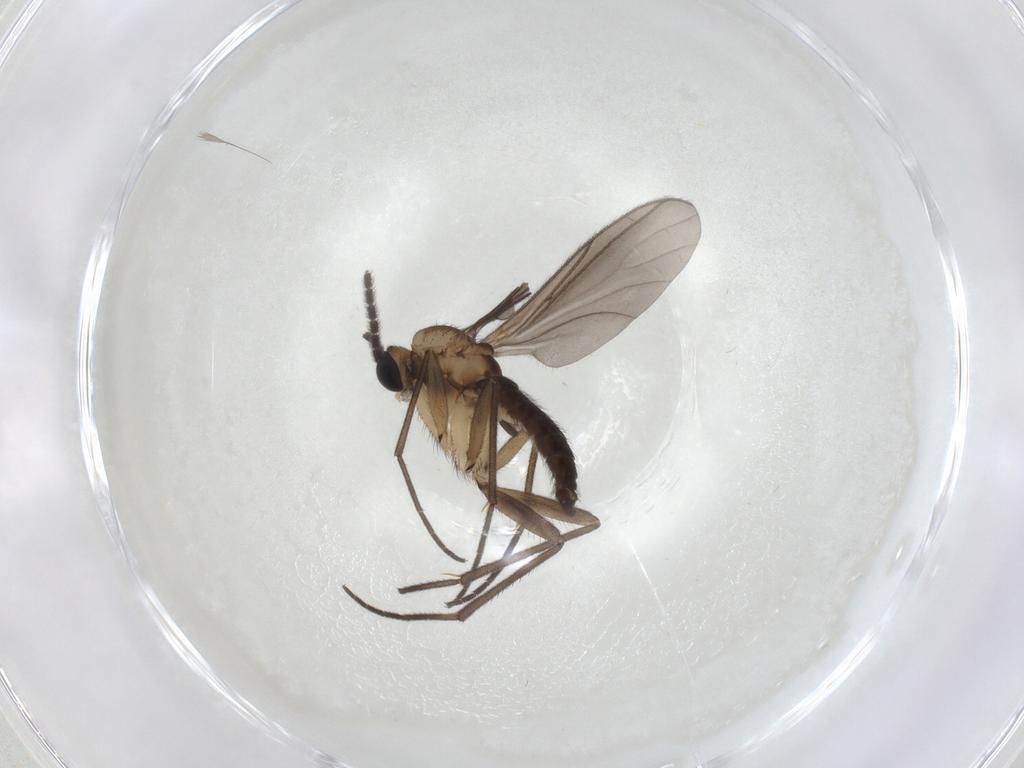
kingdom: Animalia
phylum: Arthropoda
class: Insecta
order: Diptera
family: Sciaridae
